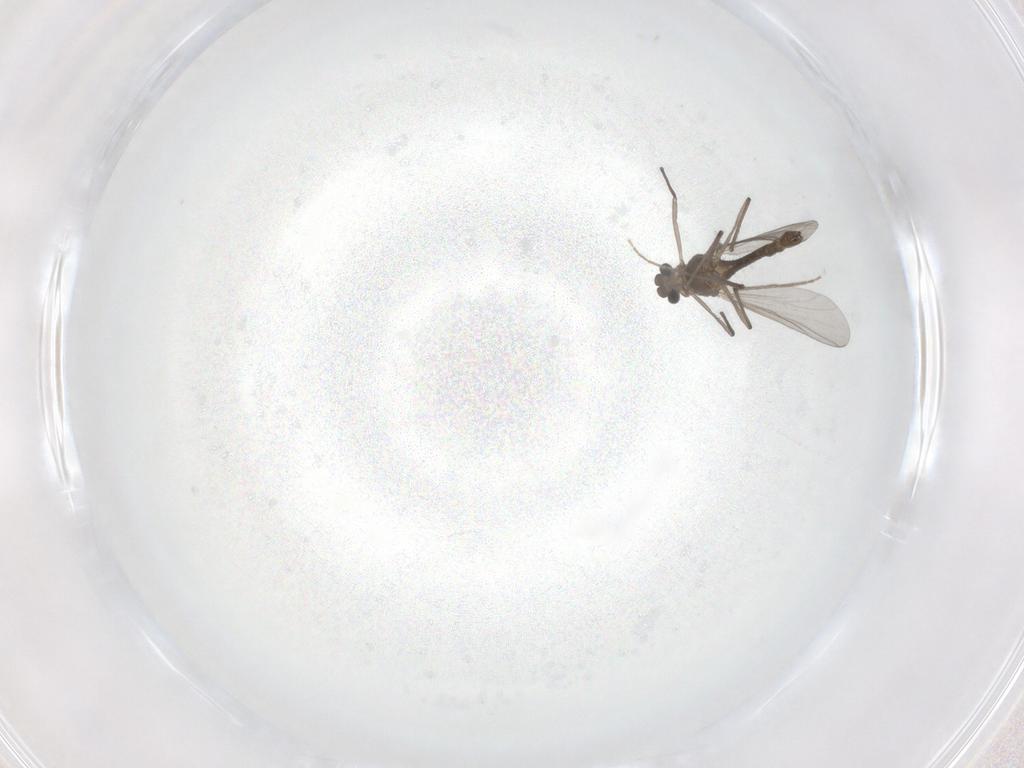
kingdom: Animalia
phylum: Arthropoda
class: Insecta
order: Diptera
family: Chironomidae
